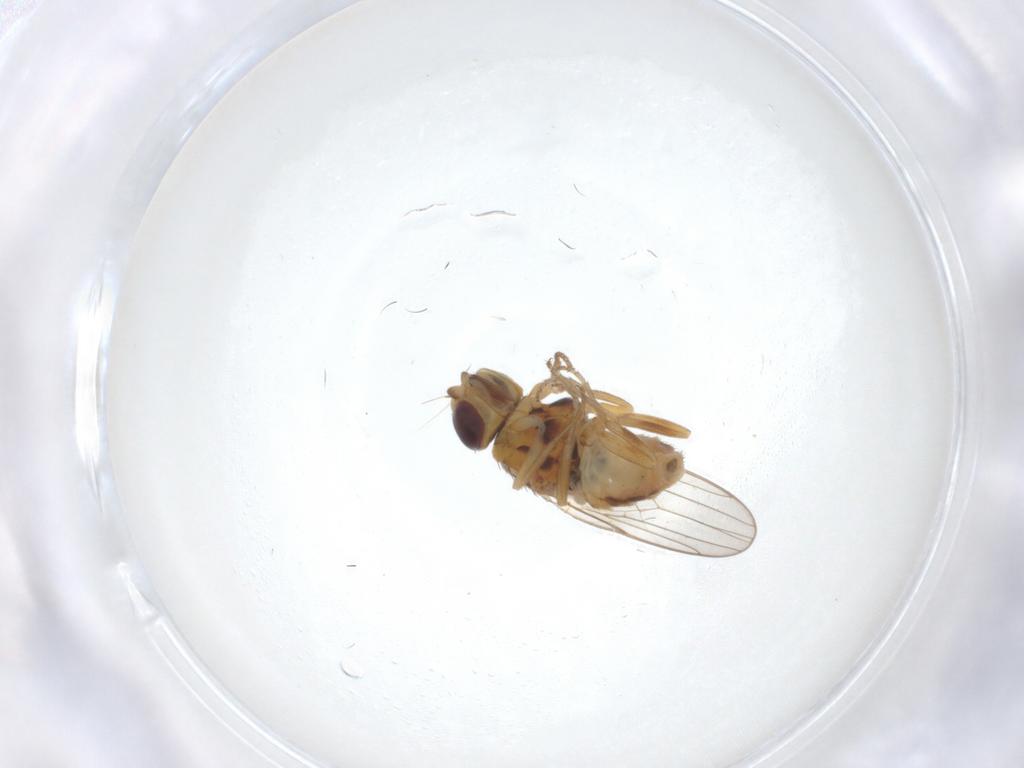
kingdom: Animalia
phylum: Arthropoda
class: Insecta
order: Diptera
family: Chloropidae
